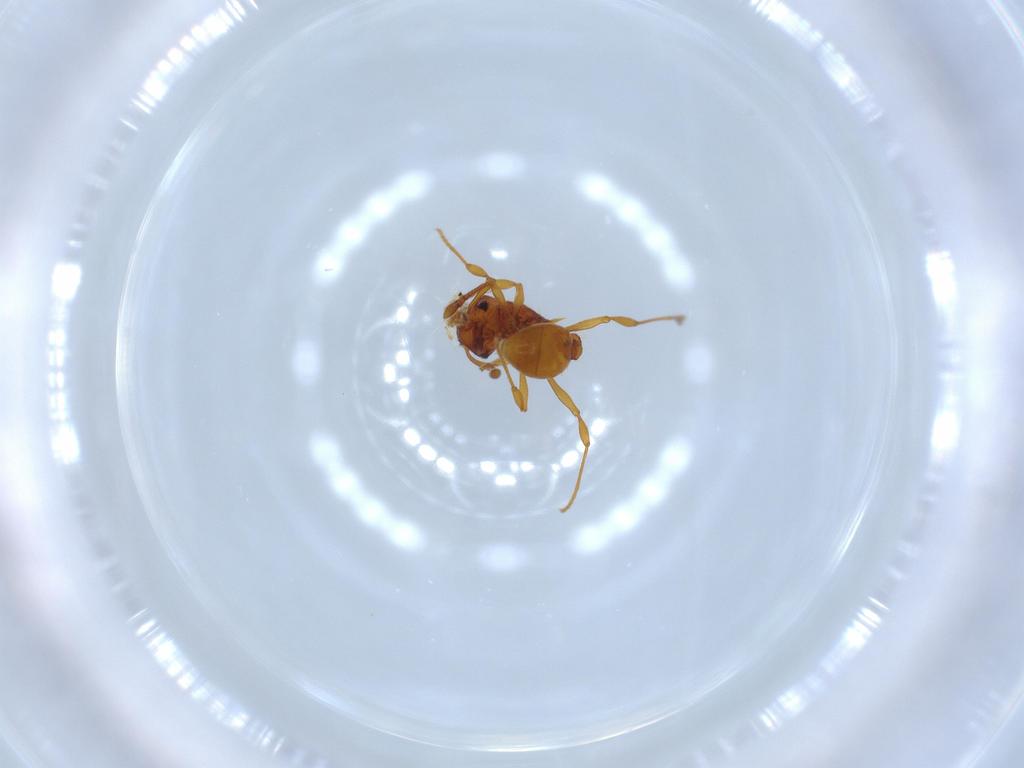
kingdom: Animalia
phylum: Arthropoda
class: Insecta
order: Hymenoptera
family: Formicidae
